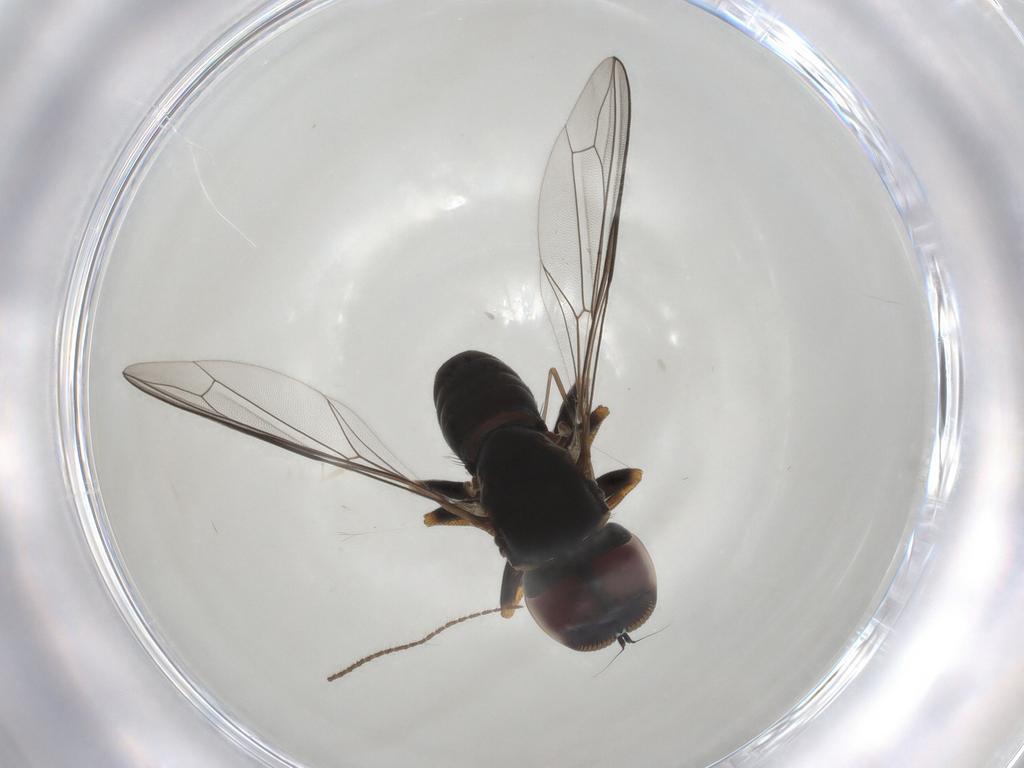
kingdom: Animalia
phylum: Arthropoda
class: Insecta
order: Diptera
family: Pipunculidae
